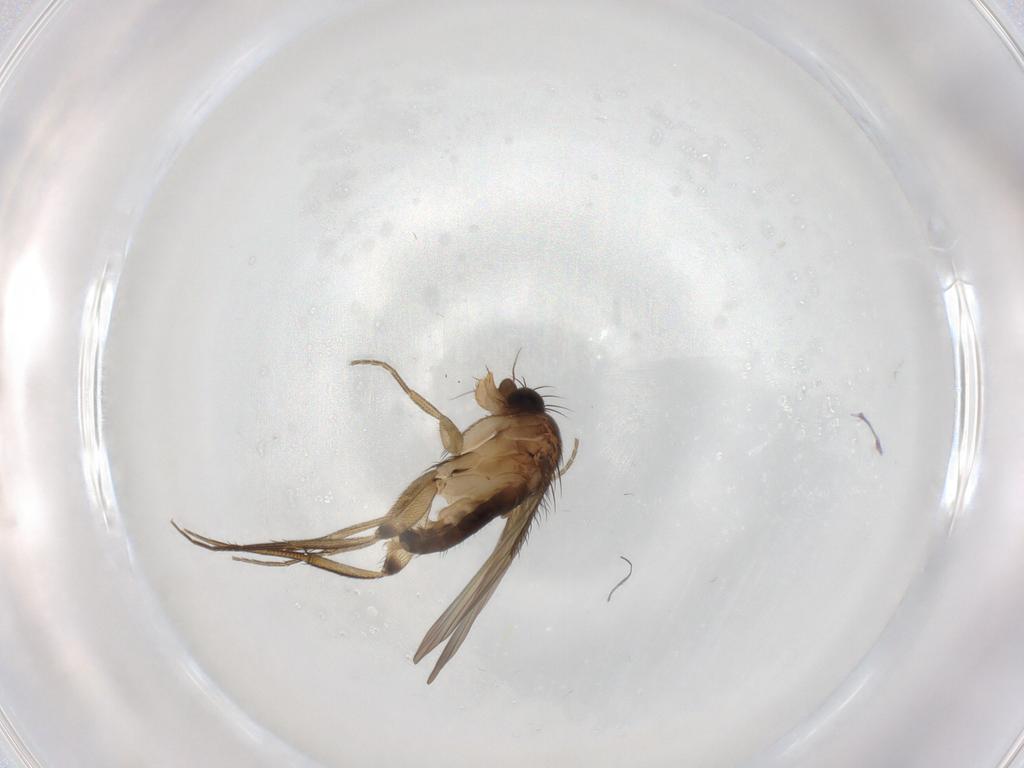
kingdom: Animalia
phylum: Arthropoda
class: Insecta
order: Diptera
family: Phoridae
